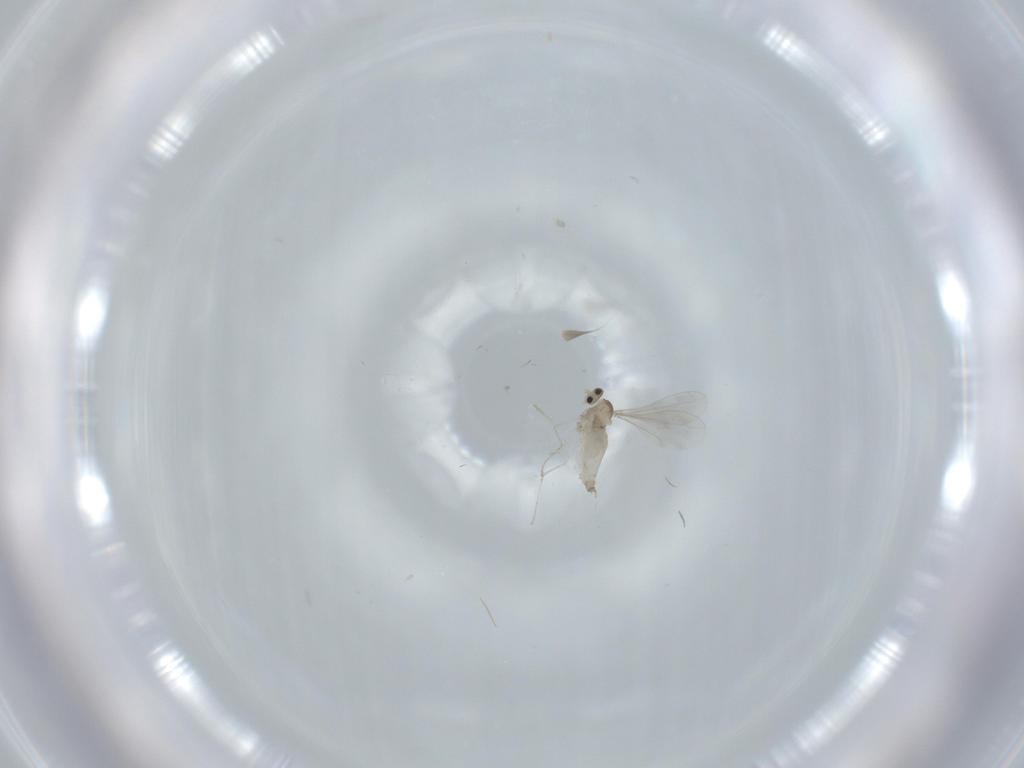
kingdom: Animalia
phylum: Arthropoda
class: Insecta
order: Diptera
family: Cecidomyiidae
